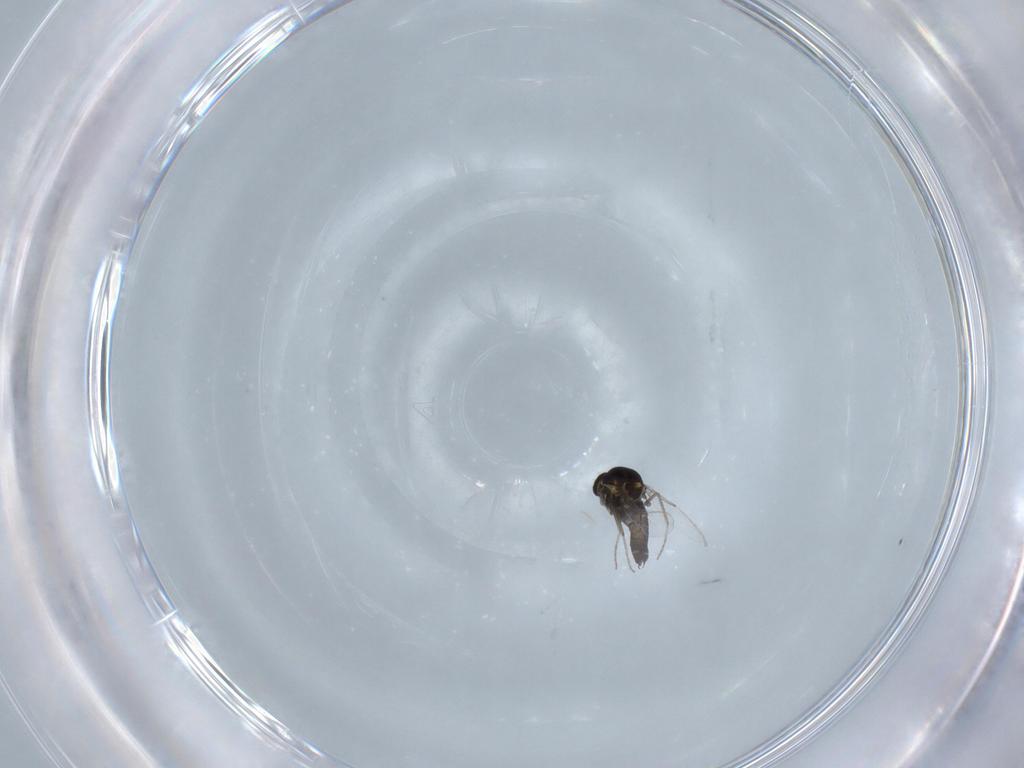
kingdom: Animalia
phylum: Arthropoda
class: Insecta
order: Diptera
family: Ceratopogonidae
